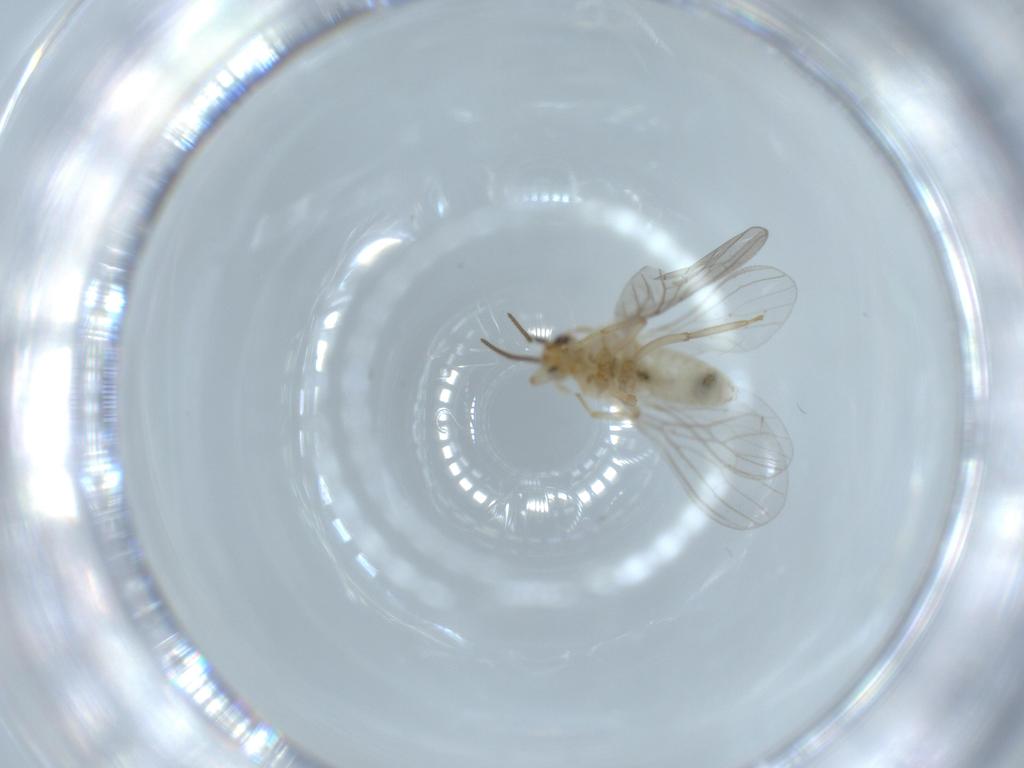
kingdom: Animalia
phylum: Arthropoda
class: Insecta
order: Neuroptera
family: Coniopterygidae
